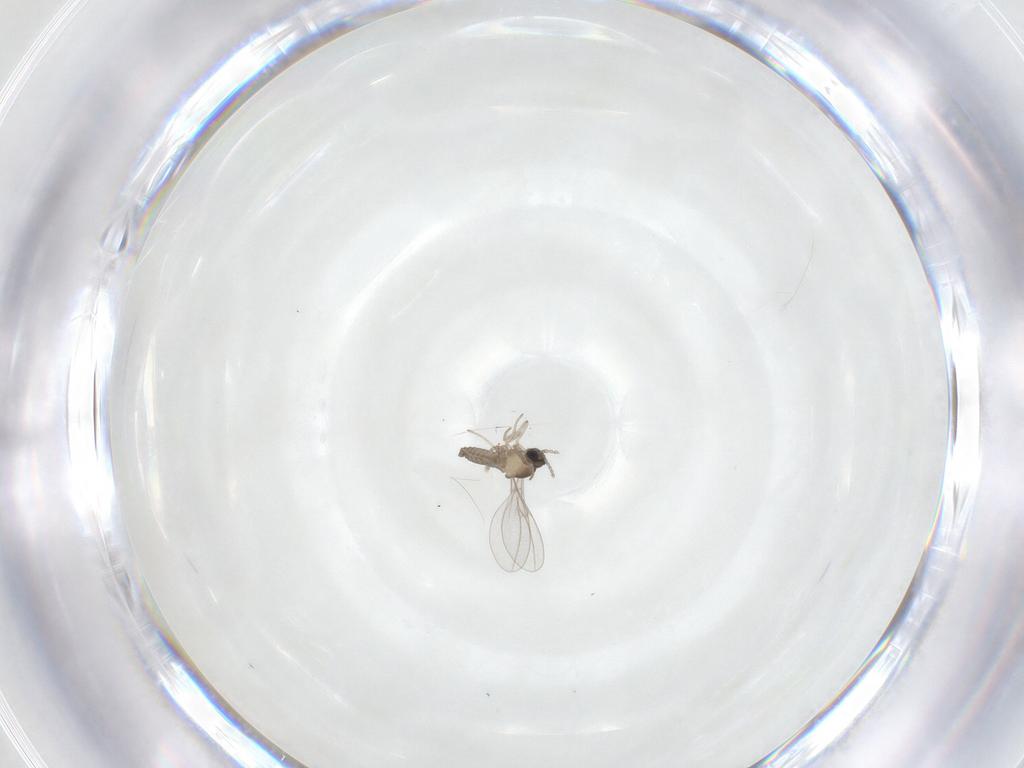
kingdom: Animalia
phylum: Arthropoda
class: Insecta
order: Diptera
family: Cecidomyiidae
